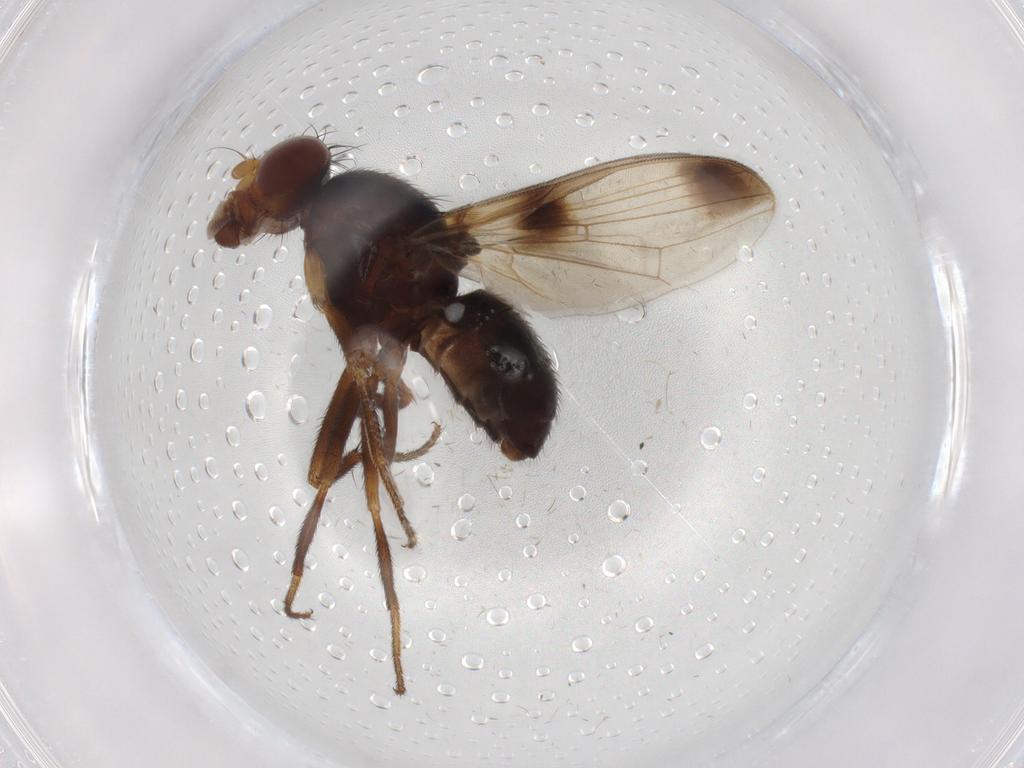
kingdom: Animalia
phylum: Arthropoda
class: Insecta
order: Diptera
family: Ulidiidae
